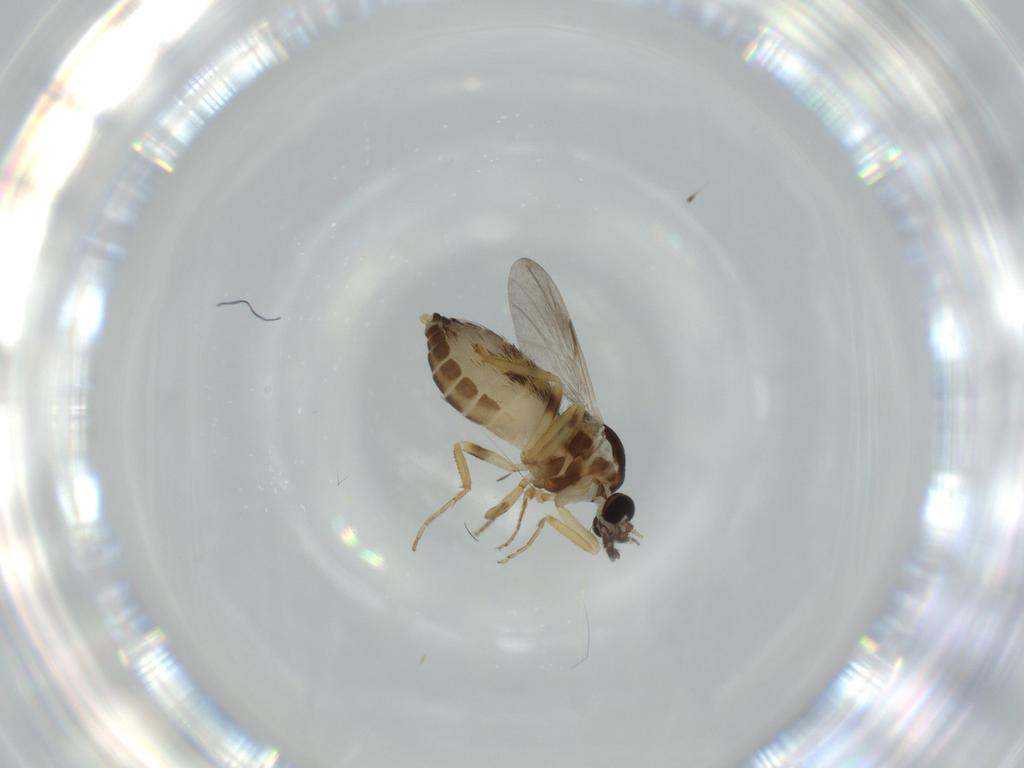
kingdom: Animalia
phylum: Arthropoda
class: Insecta
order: Diptera
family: Ceratopogonidae
